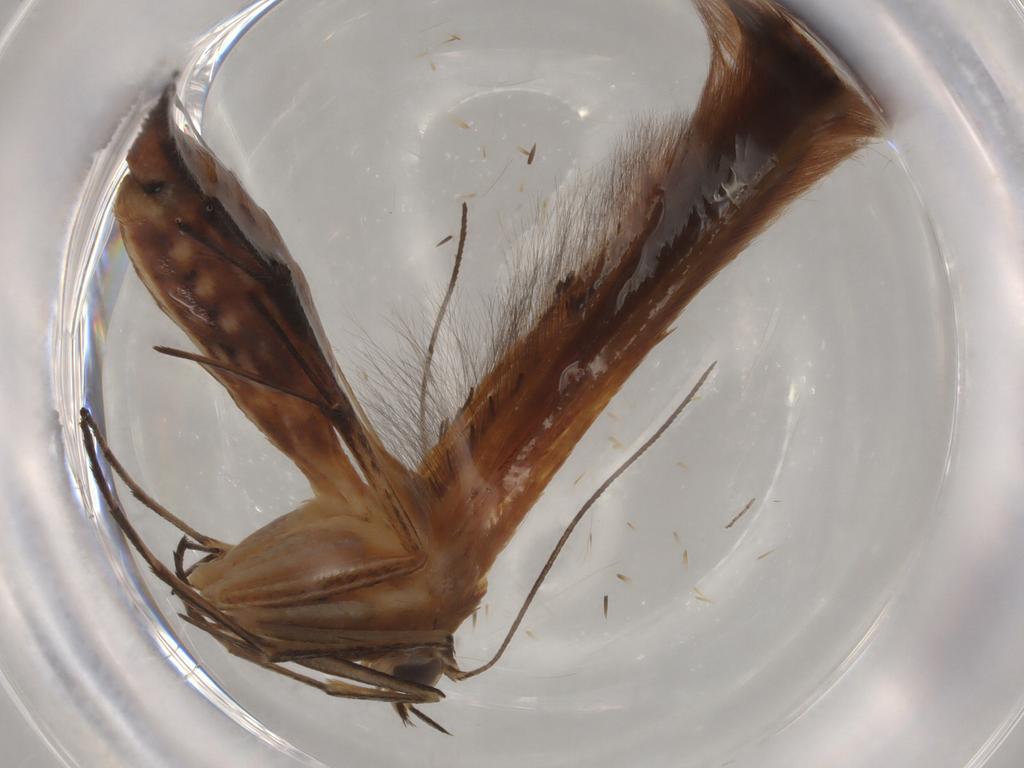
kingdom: Animalia
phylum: Arthropoda
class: Insecta
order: Lepidoptera
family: Pterophoridae
